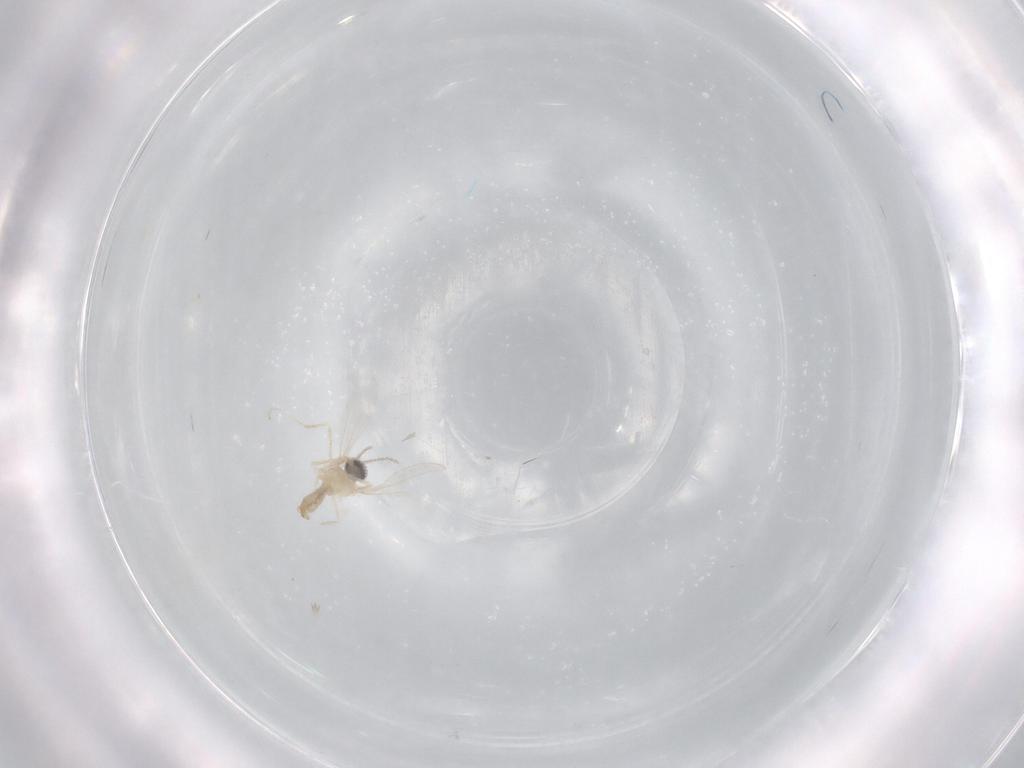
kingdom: Animalia
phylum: Arthropoda
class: Insecta
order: Diptera
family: Cecidomyiidae
